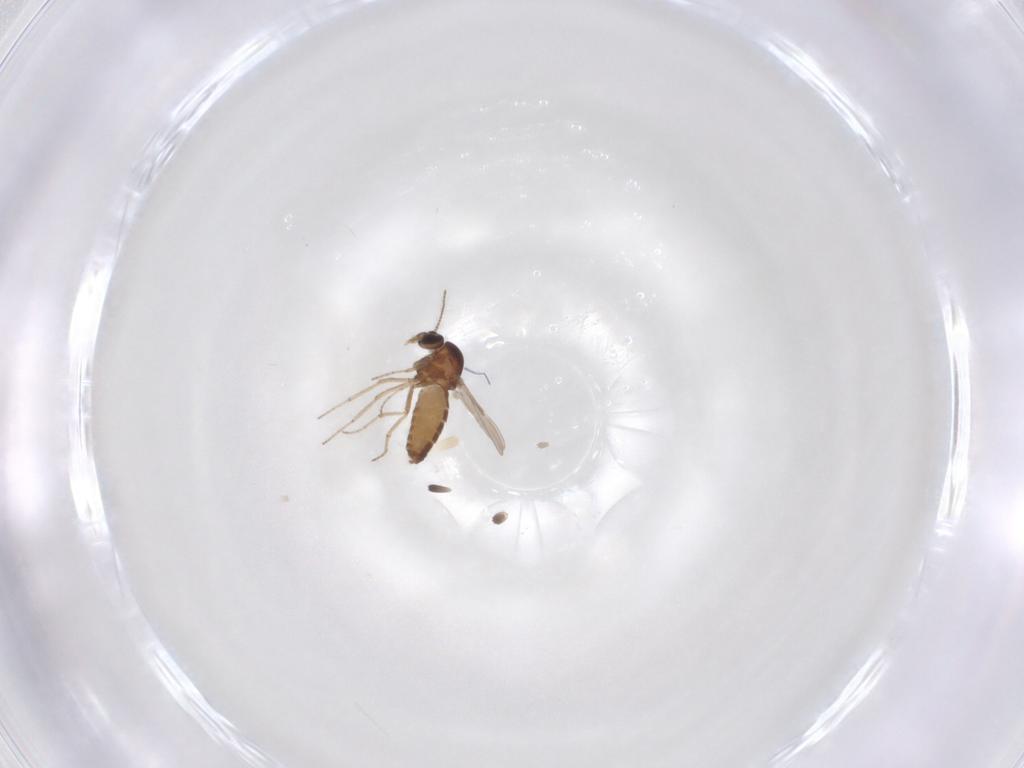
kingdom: Animalia
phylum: Arthropoda
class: Insecta
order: Diptera
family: Ceratopogonidae
